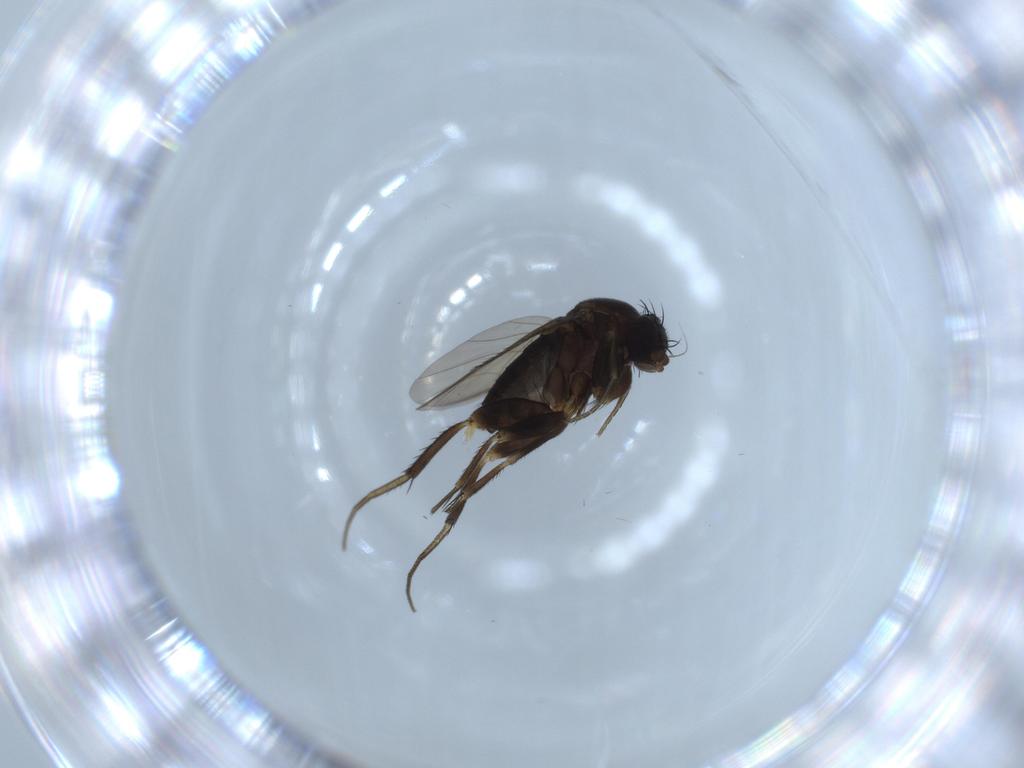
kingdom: Animalia
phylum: Arthropoda
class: Insecta
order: Diptera
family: Phoridae
